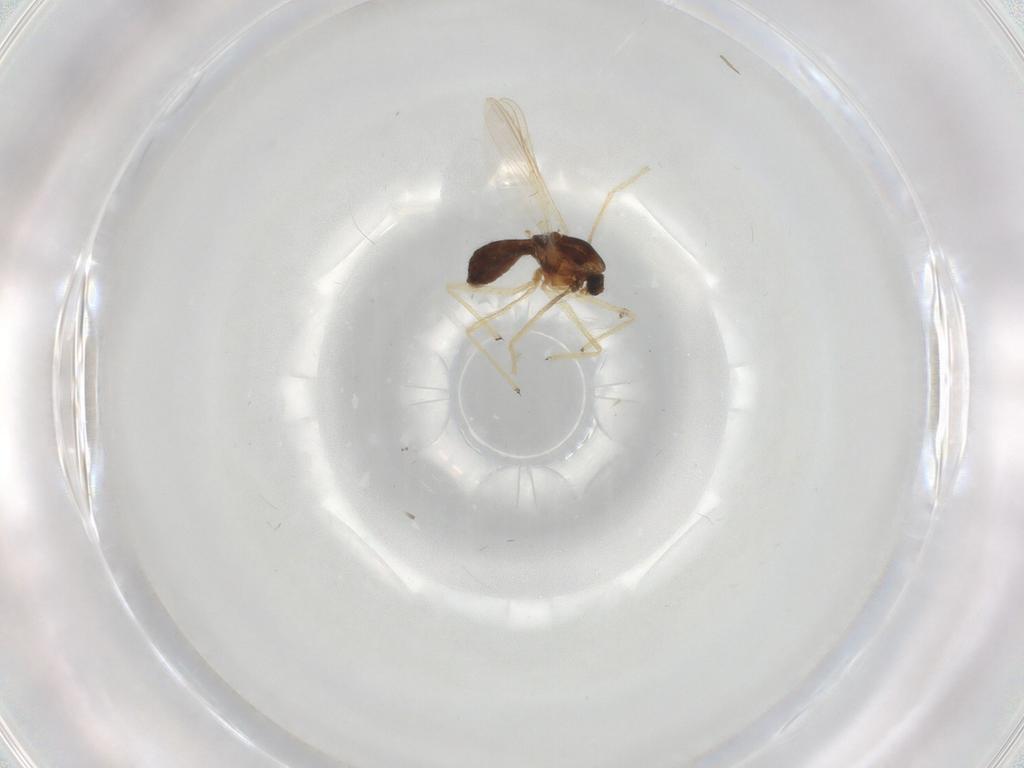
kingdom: Animalia
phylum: Arthropoda
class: Insecta
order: Diptera
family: Chironomidae
